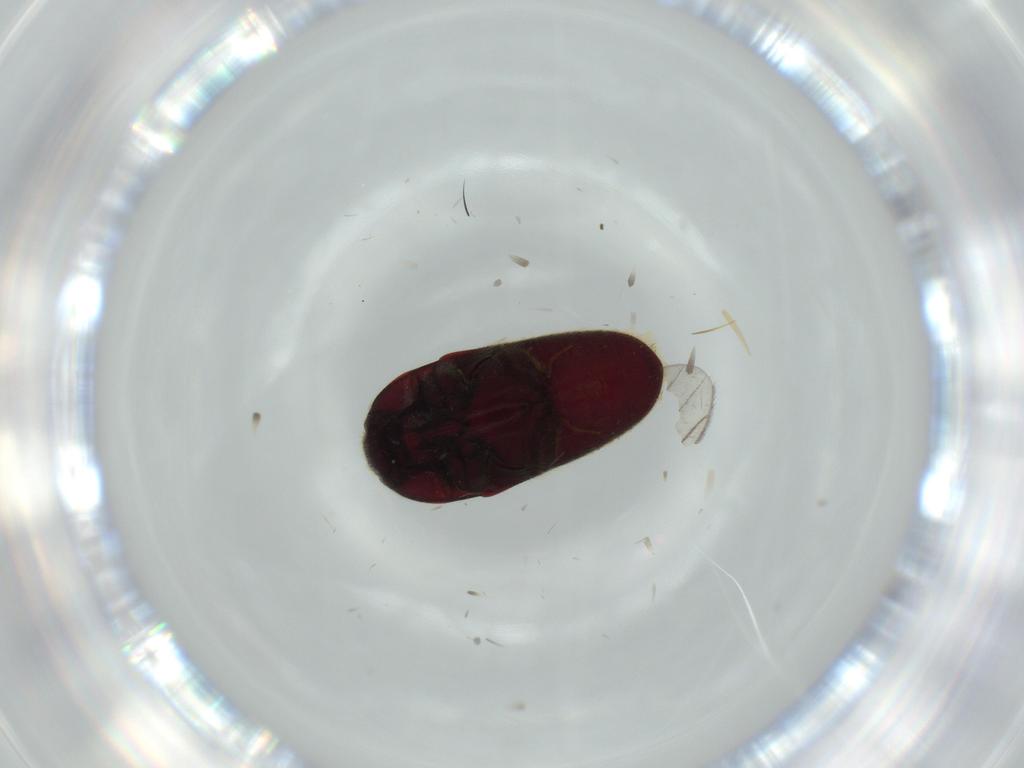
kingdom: Animalia
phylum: Arthropoda
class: Insecta
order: Coleoptera
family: Throscidae
